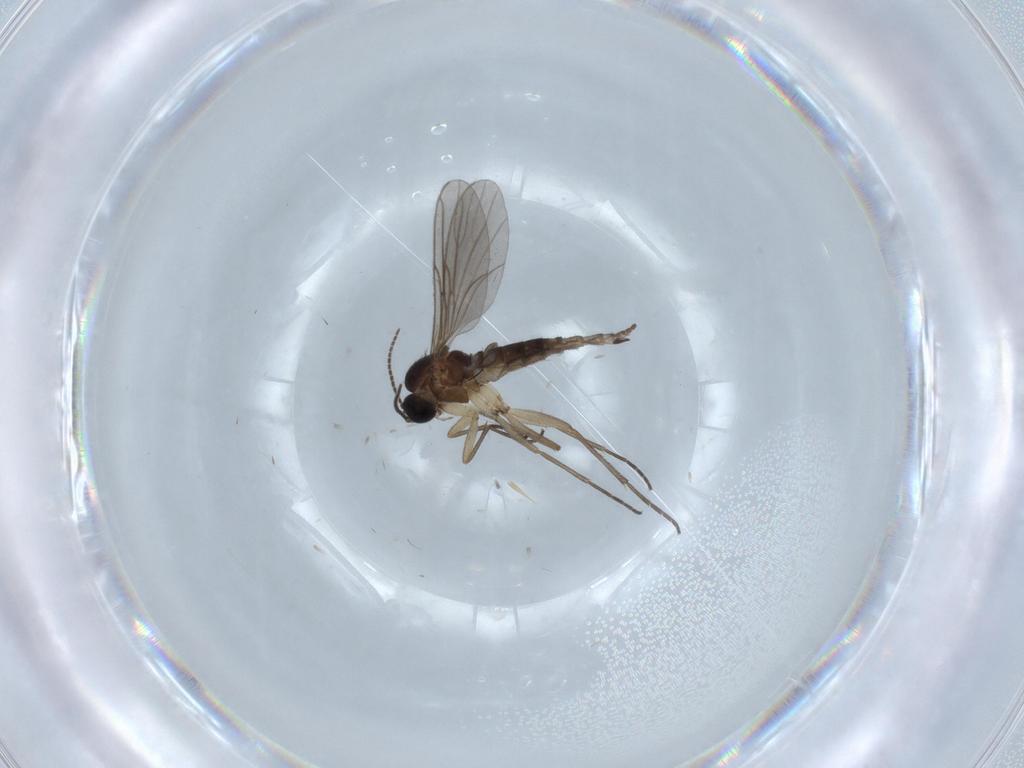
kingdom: Animalia
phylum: Arthropoda
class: Insecta
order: Diptera
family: Sciaridae
